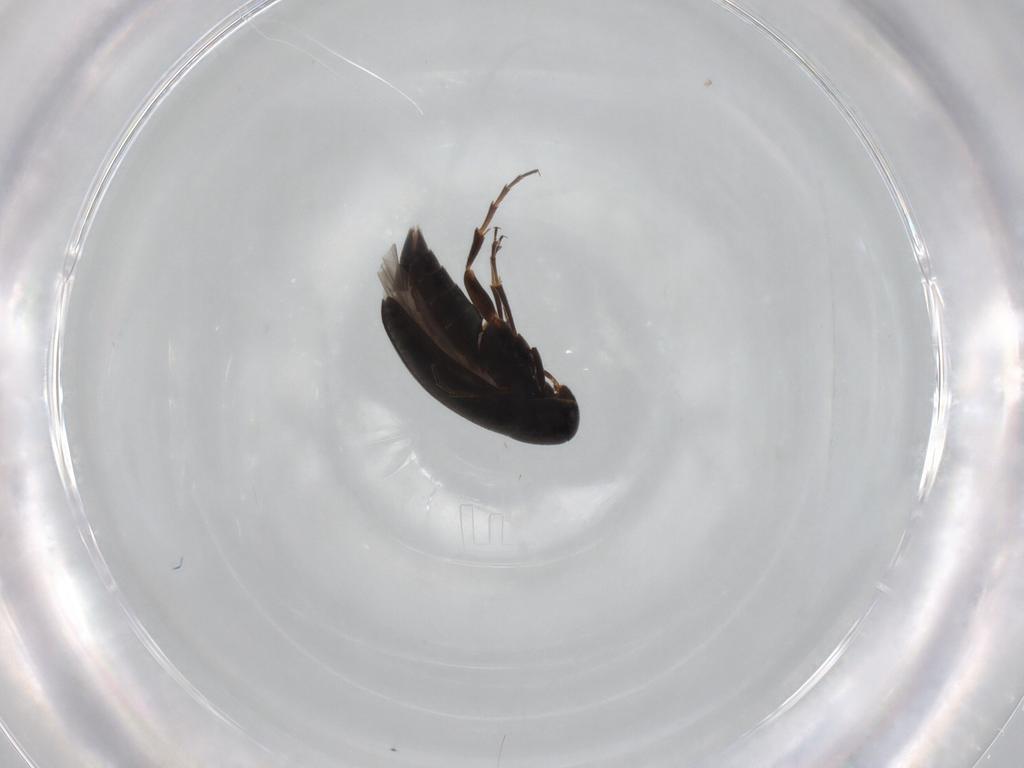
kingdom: Animalia
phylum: Arthropoda
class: Insecta
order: Coleoptera
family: Scraptiidae
